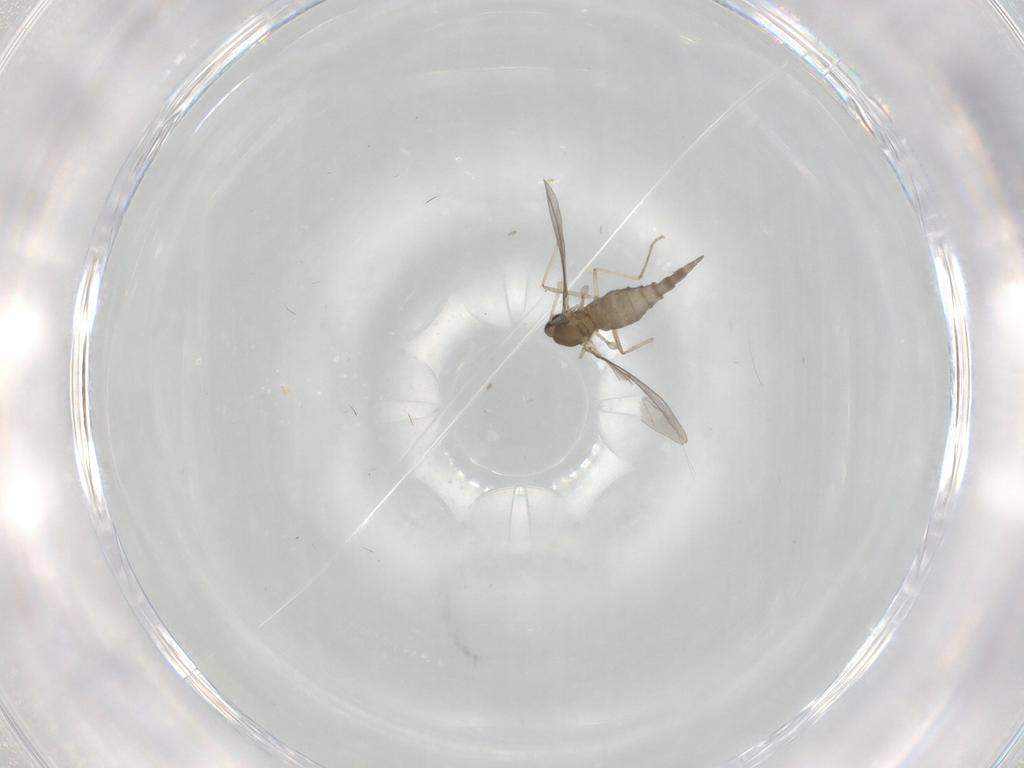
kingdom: Animalia
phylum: Arthropoda
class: Insecta
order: Diptera
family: Cecidomyiidae
